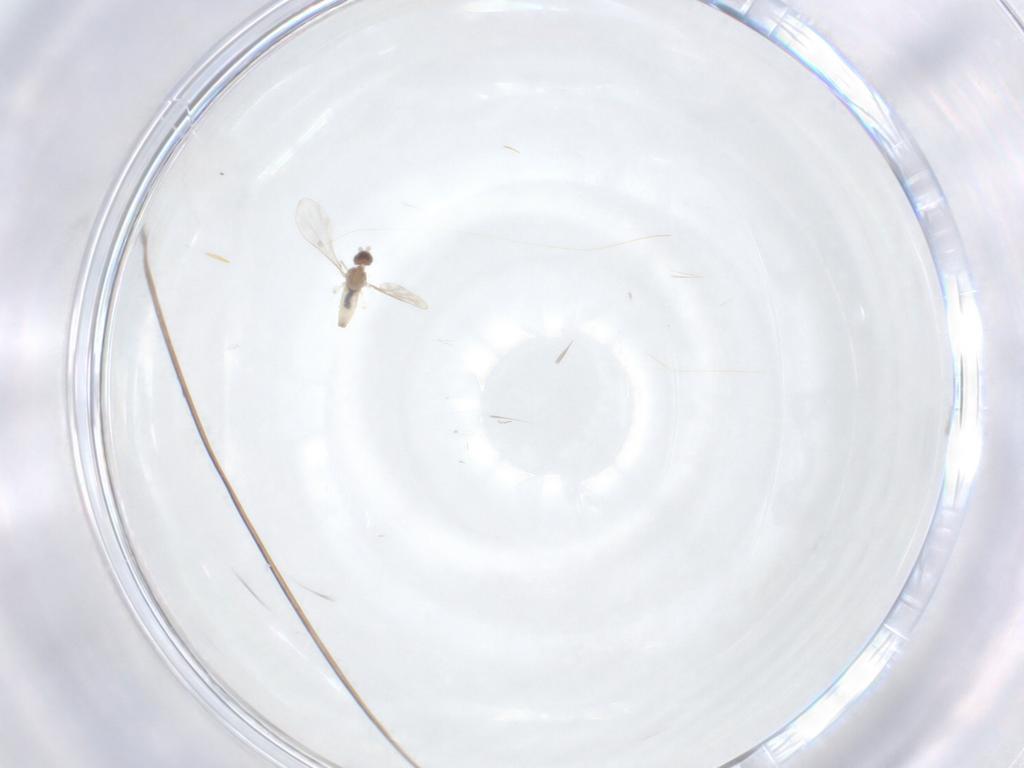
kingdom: Animalia
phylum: Arthropoda
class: Insecta
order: Diptera
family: Cecidomyiidae
